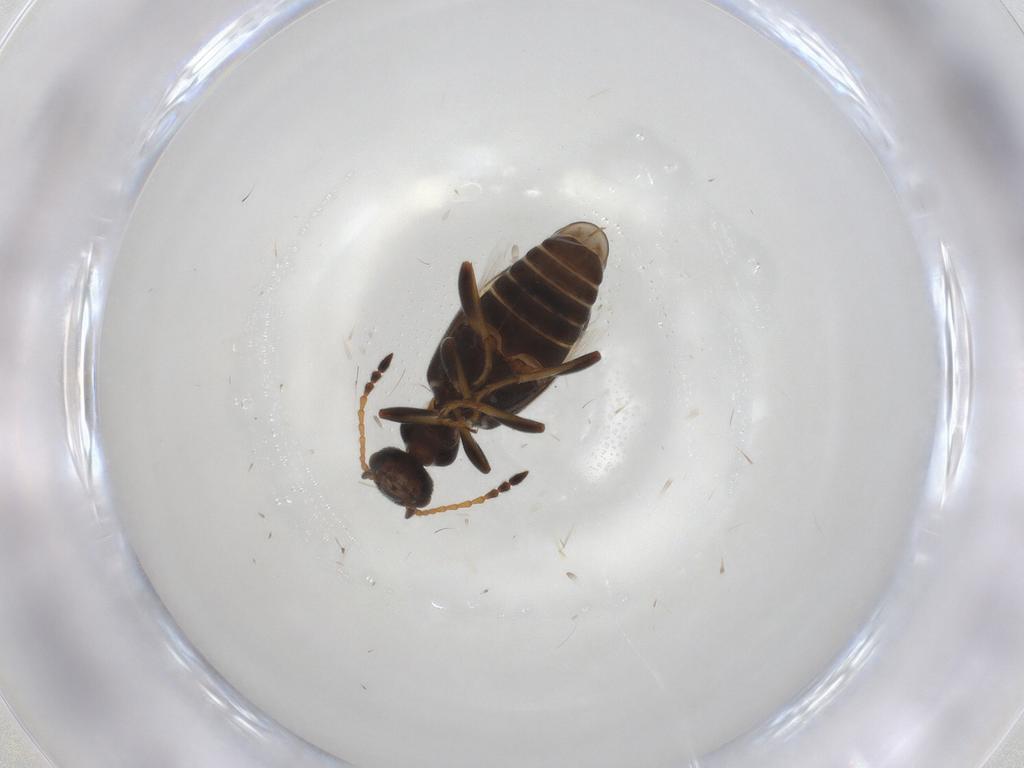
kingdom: Animalia
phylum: Arthropoda
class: Insecta
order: Coleoptera
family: Anthicidae
